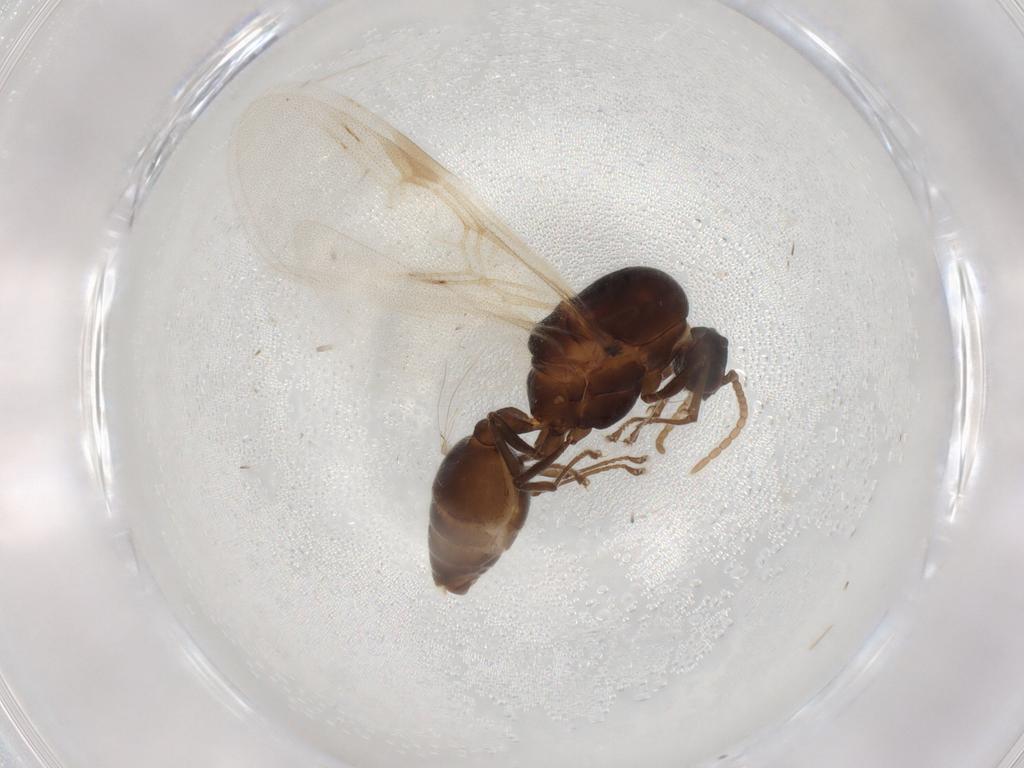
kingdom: Animalia
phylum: Arthropoda
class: Insecta
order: Hymenoptera
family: Formicidae
